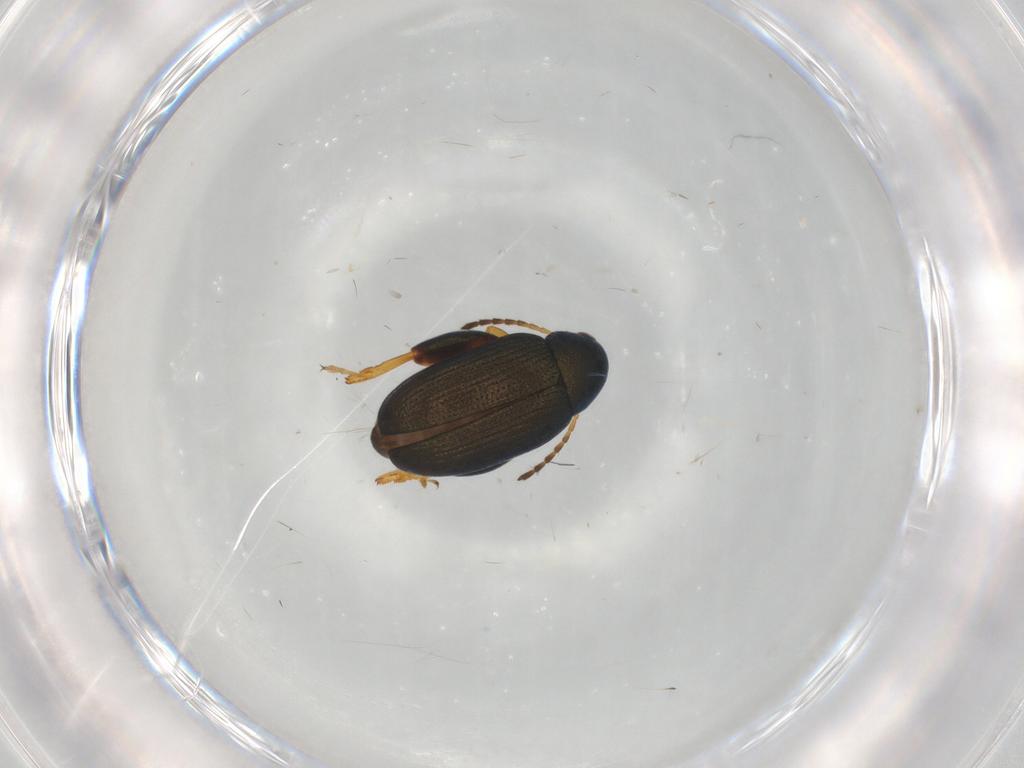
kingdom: Animalia
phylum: Arthropoda
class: Insecta
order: Coleoptera
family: Chrysomelidae
